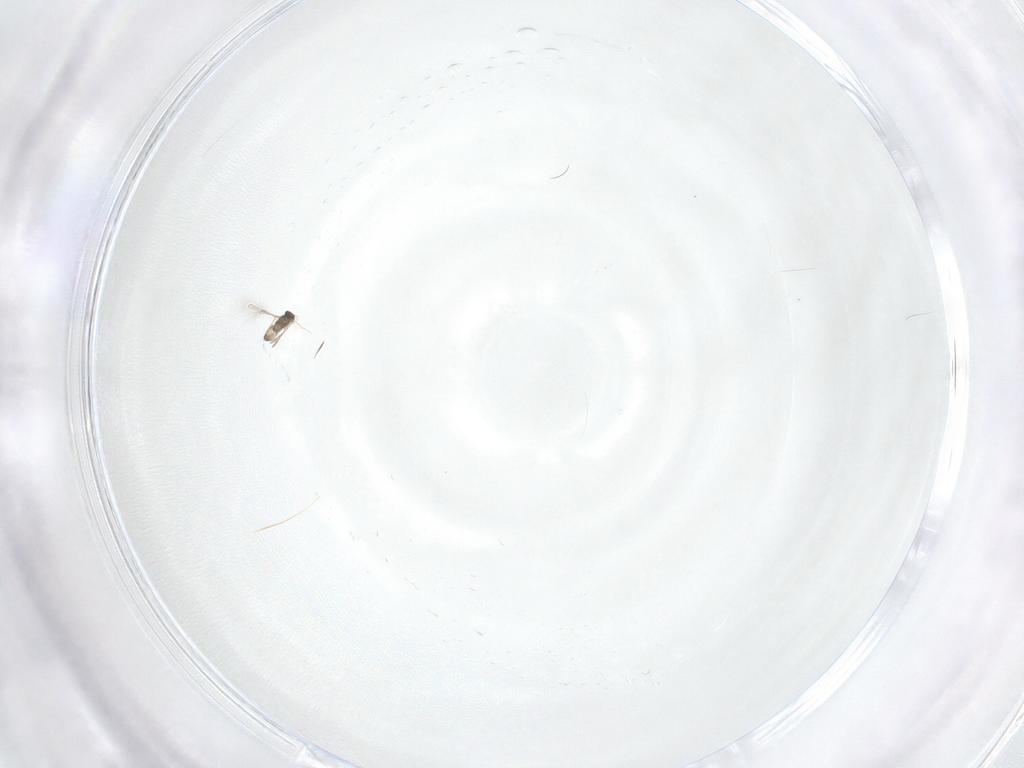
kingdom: Animalia
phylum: Arthropoda
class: Insecta
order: Hymenoptera
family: Mymaridae
